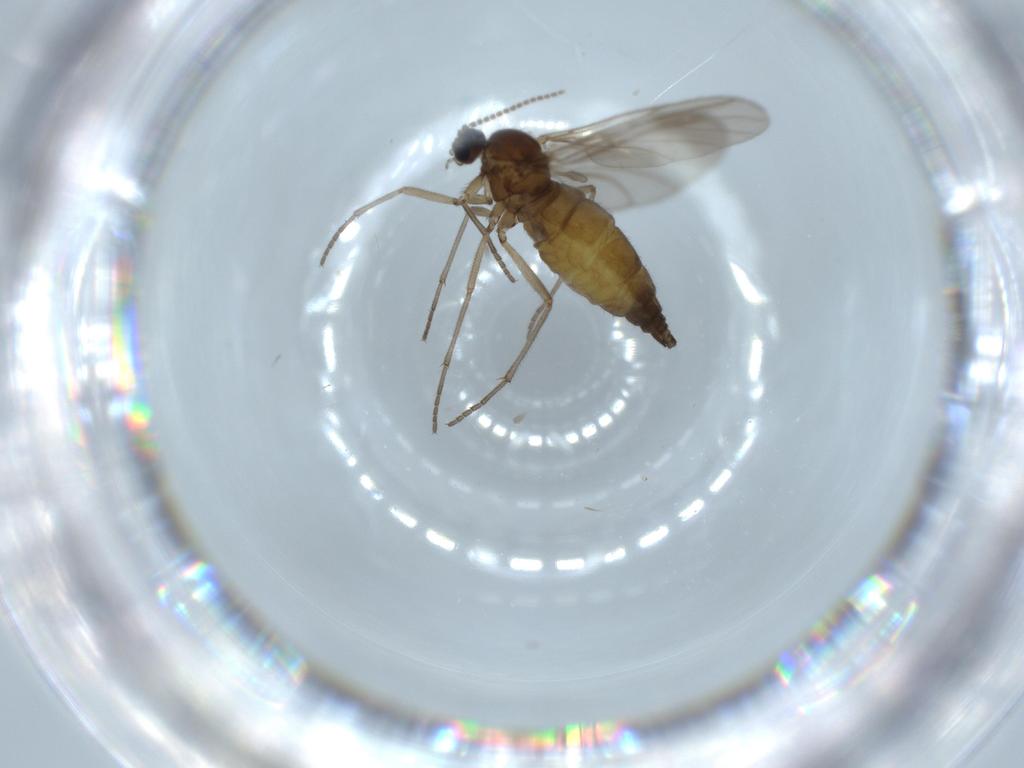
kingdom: Animalia
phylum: Arthropoda
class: Insecta
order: Diptera
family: Sciaridae
